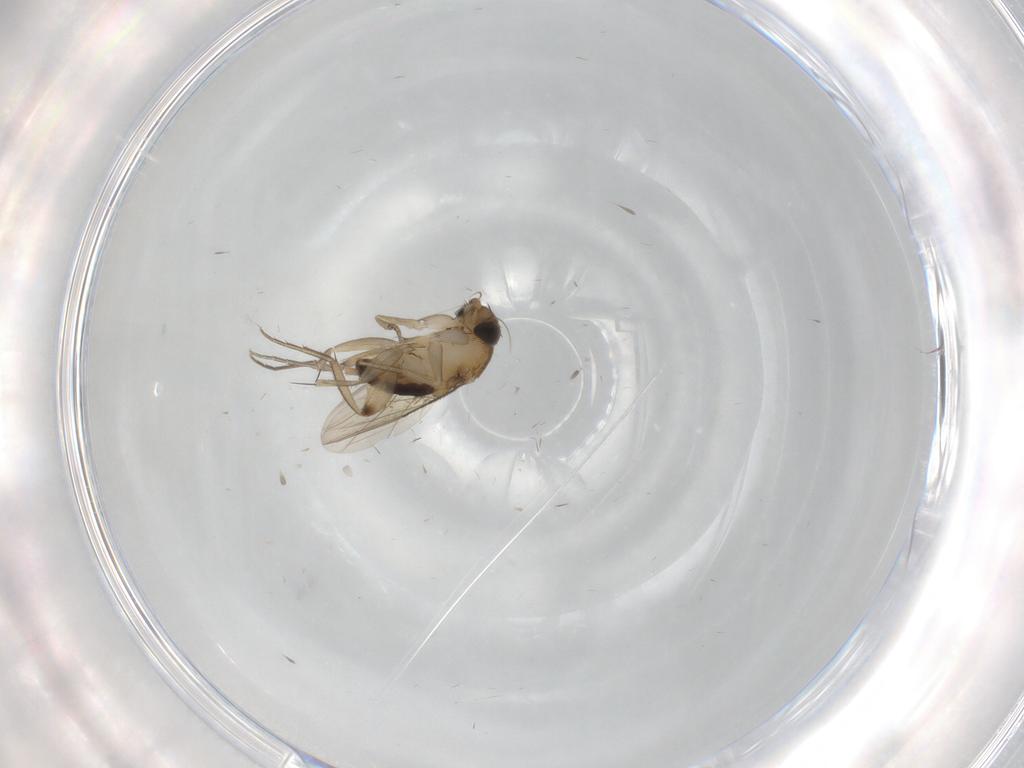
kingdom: Animalia
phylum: Arthropoda
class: Insecta
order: Diptera
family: Phoridae
